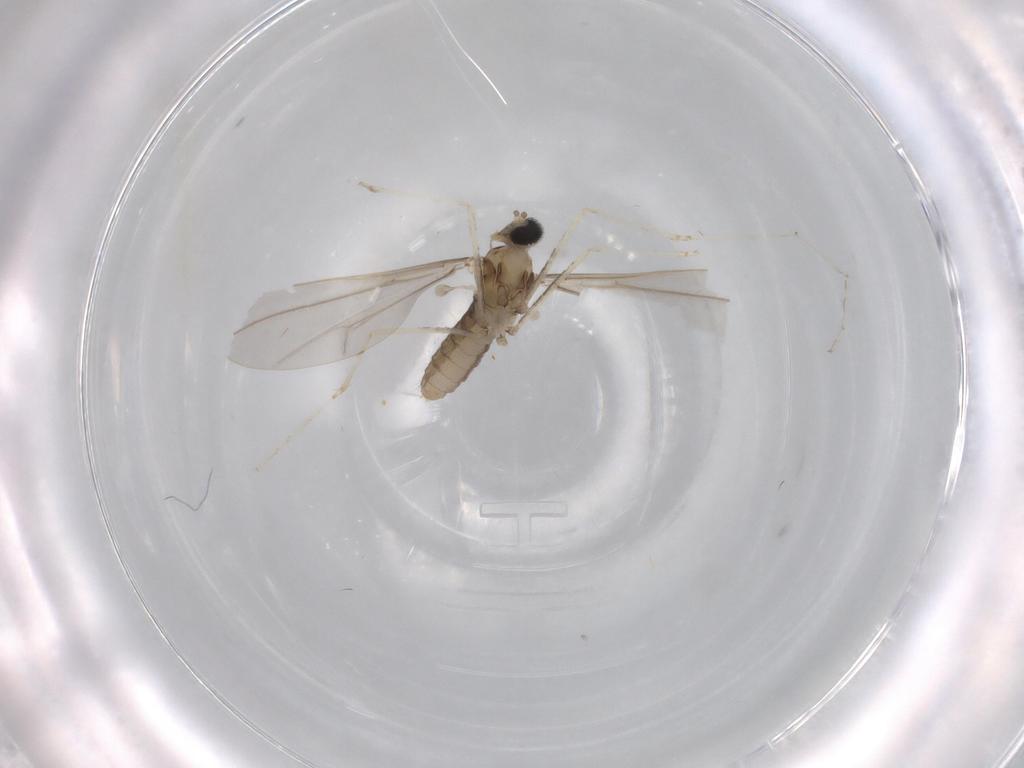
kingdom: Animalia
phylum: Arthropoda
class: Insecta
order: Diptera
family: Cecidomyiidae
